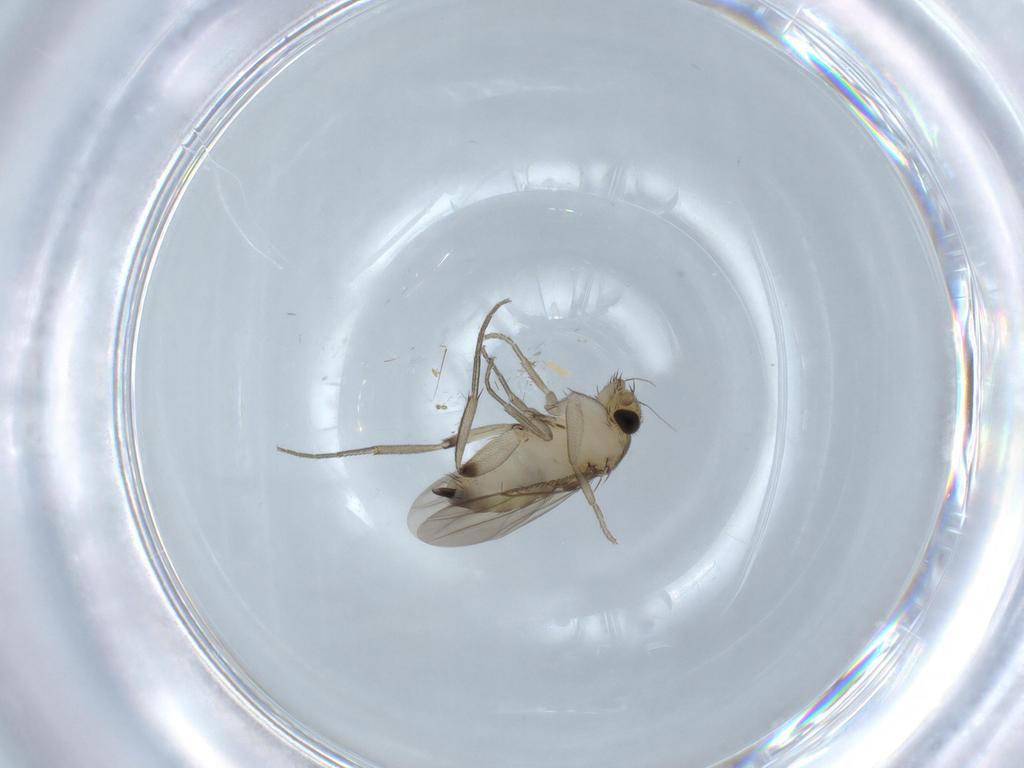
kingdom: Animalia
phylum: Arthropoda
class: Insecta
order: Diptera
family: Phoridae
